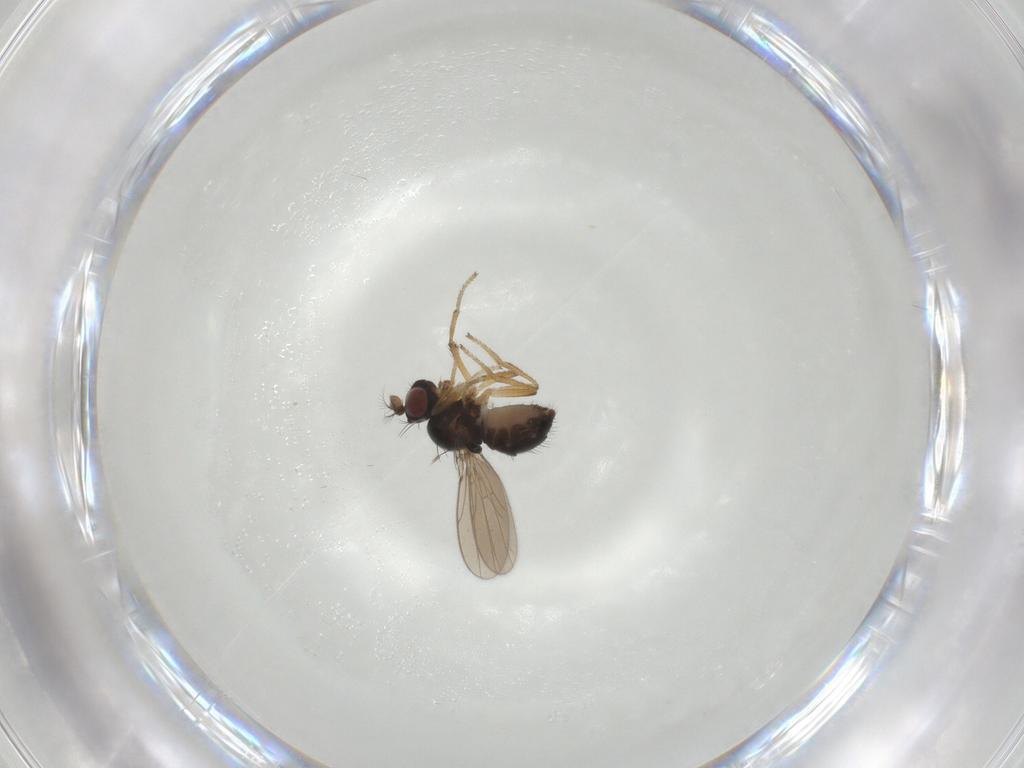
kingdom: Animalia
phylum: Arthropoda
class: Insecta
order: Diptera
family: Ephydridae
